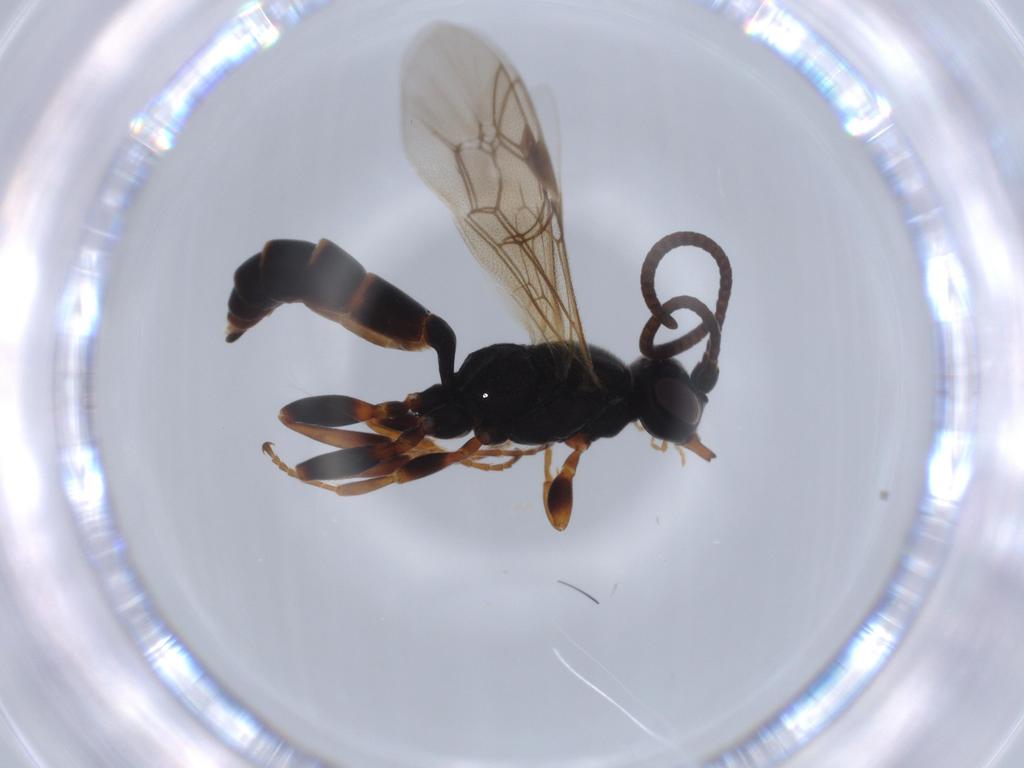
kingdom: Animalia
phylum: Arthropoda
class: Insecta
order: Hymenoptera
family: Ichneumonidae
